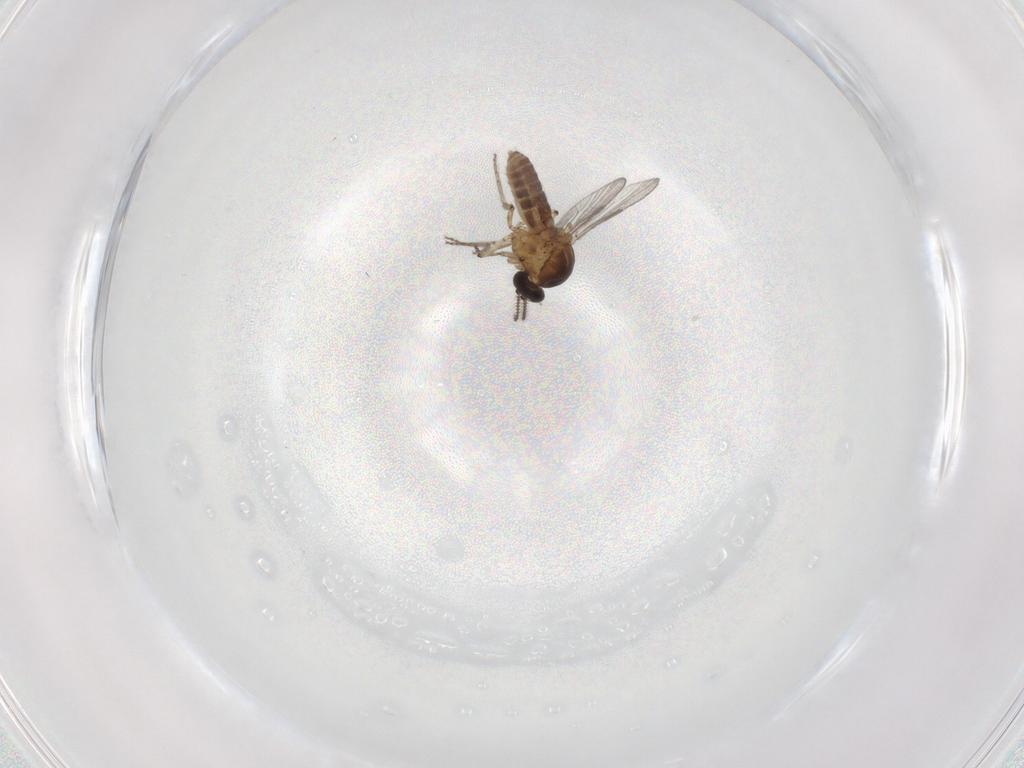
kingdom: Animalia
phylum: Arthropoda
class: Insecta
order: Diptera
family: Ceratopogonidae
